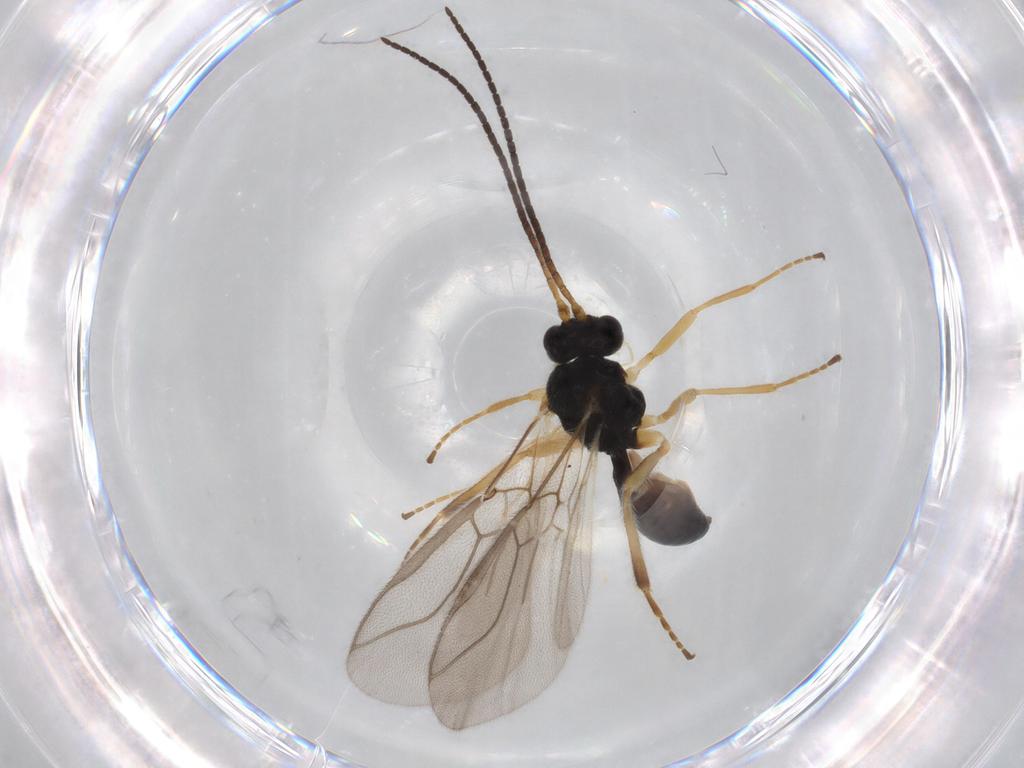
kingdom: Animalia
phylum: Arthropoda
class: Insecta
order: Hymenoptera
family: Braconidae
